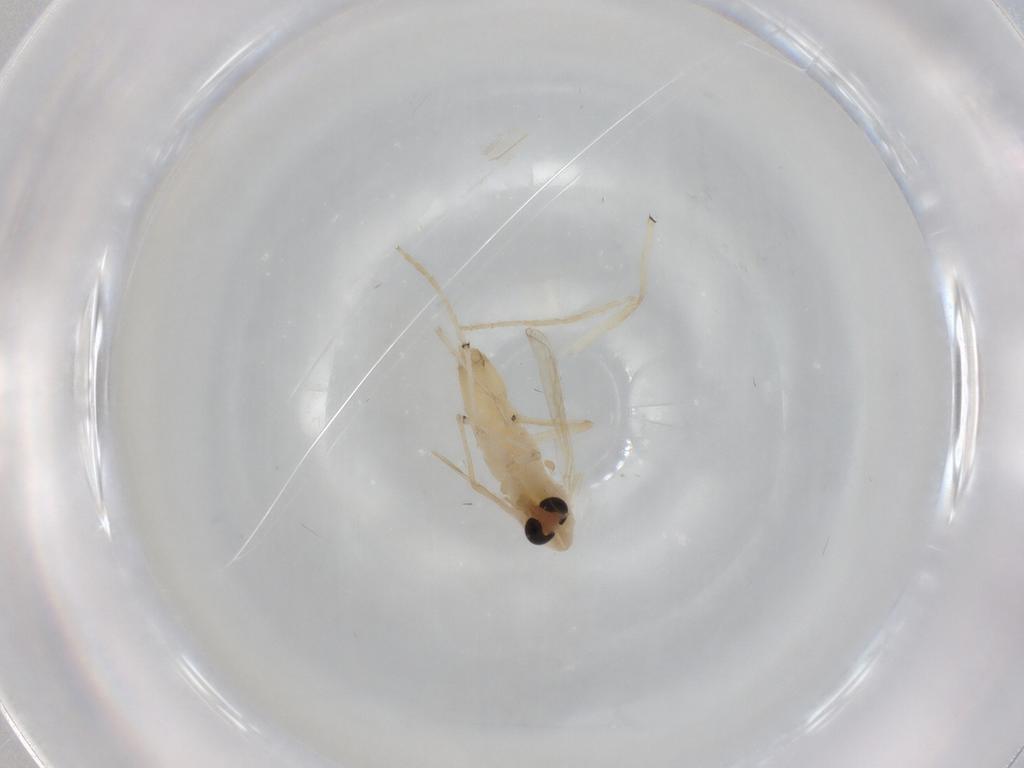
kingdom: Animalia
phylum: Arthropoda
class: Insecta
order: Diptera
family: Chironomidae
